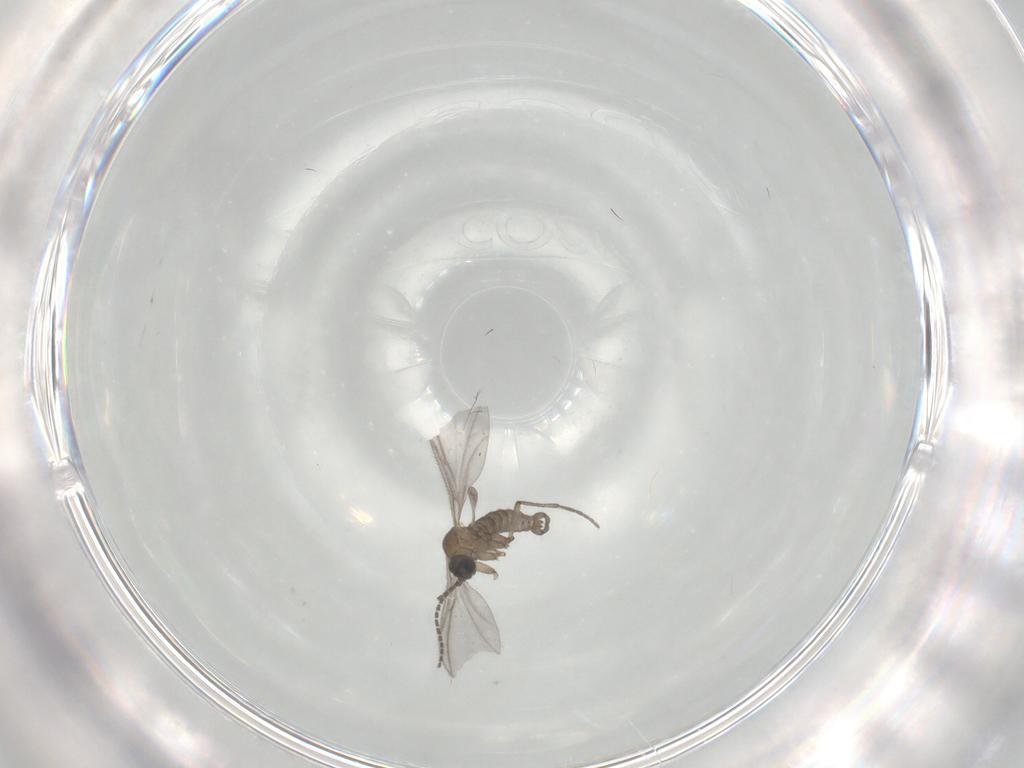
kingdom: Animalia
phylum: Arthropoda
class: Insecta
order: Diptera
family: Sciaridae
